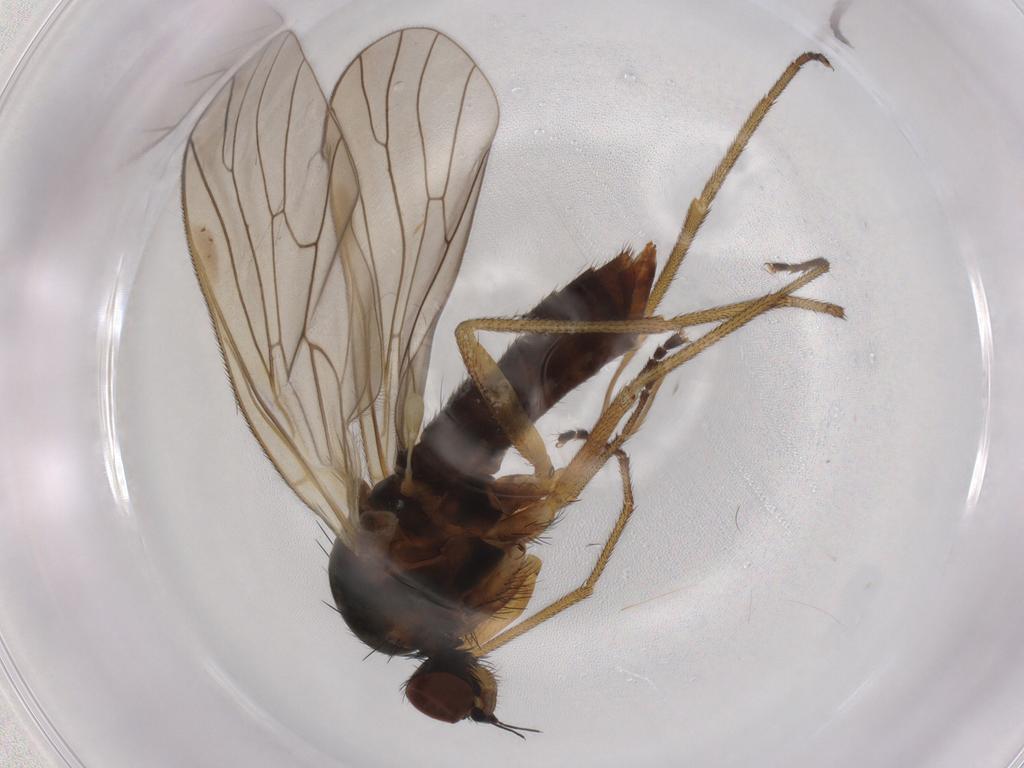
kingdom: Animalia
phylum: Arthropoda
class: Insecta
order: Diptera
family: Brachystomatidae
